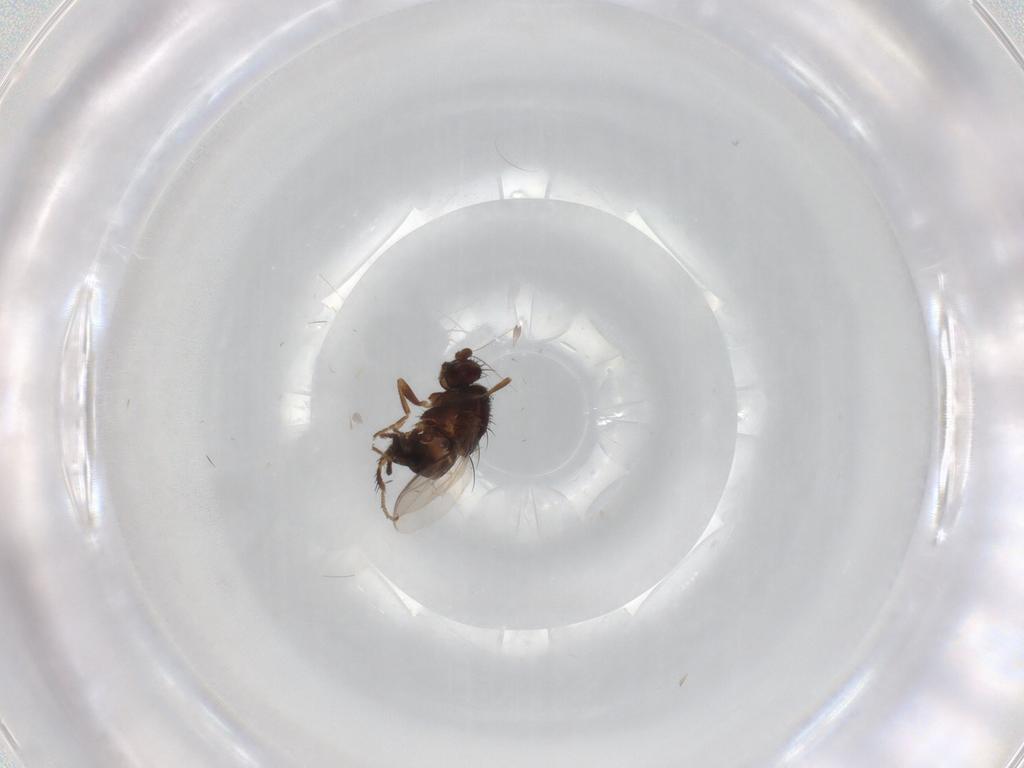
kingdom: Animalia
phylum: Arthropoda
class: Insecta
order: Diptera
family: Sphaeroceridae
